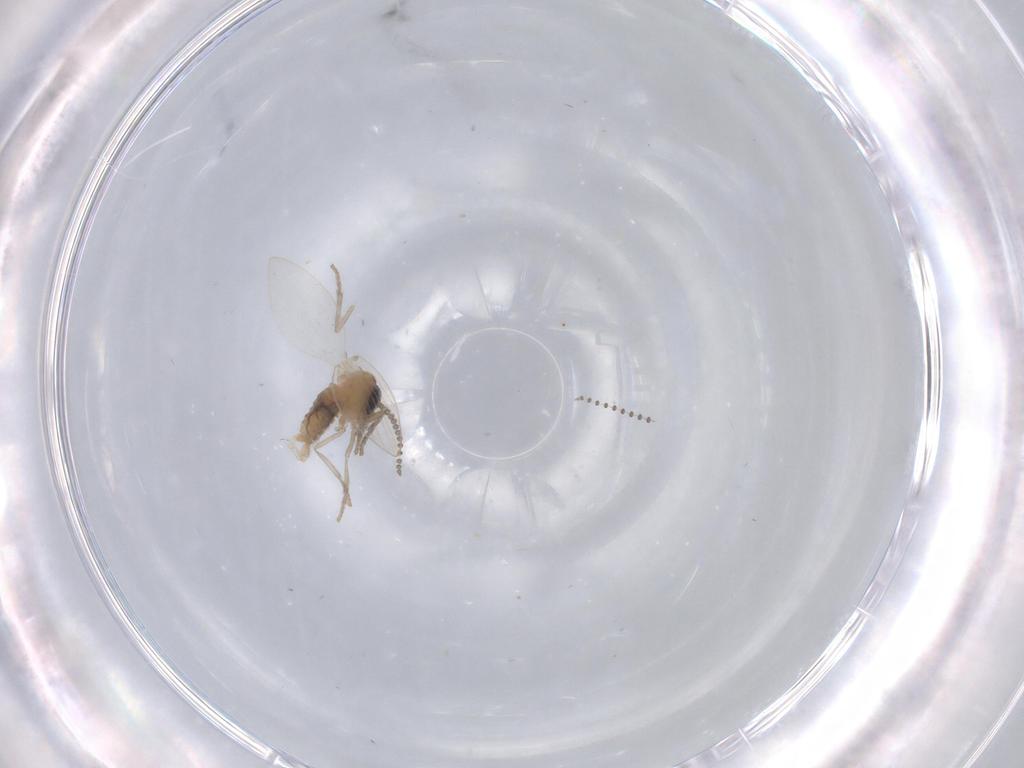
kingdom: Animalia
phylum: Arthropoda
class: Insecta
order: Diptera
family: Psychodidae
